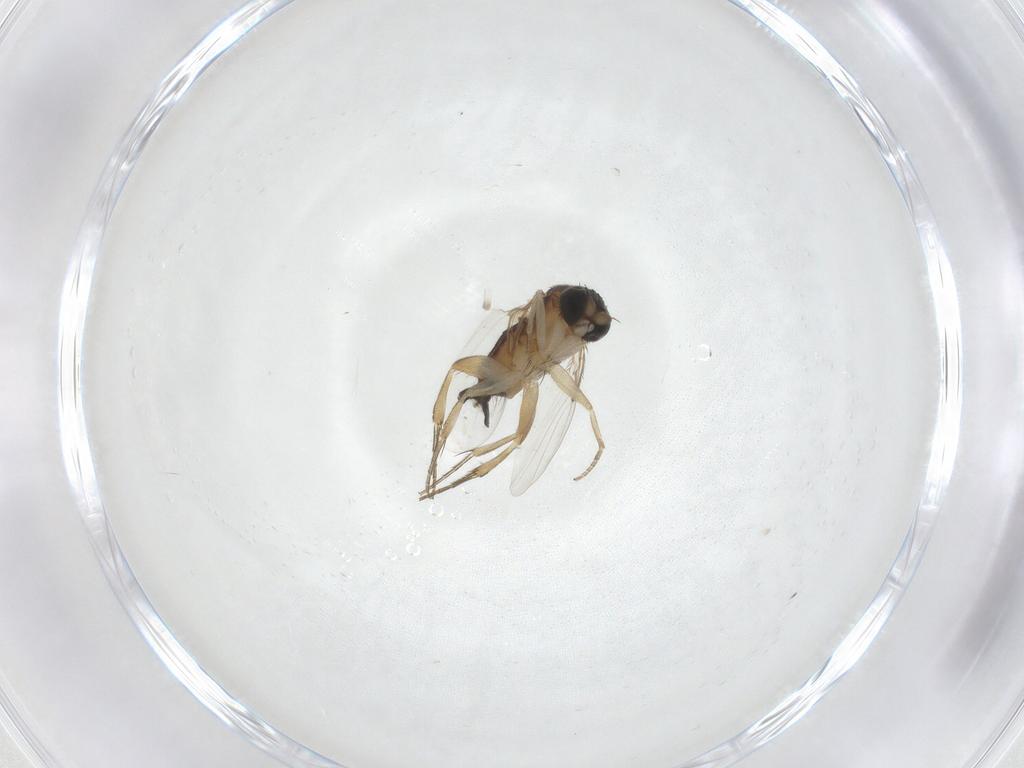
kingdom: Animalia
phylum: Arthropoda
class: Insecta
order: Diptera
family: Phoridae
